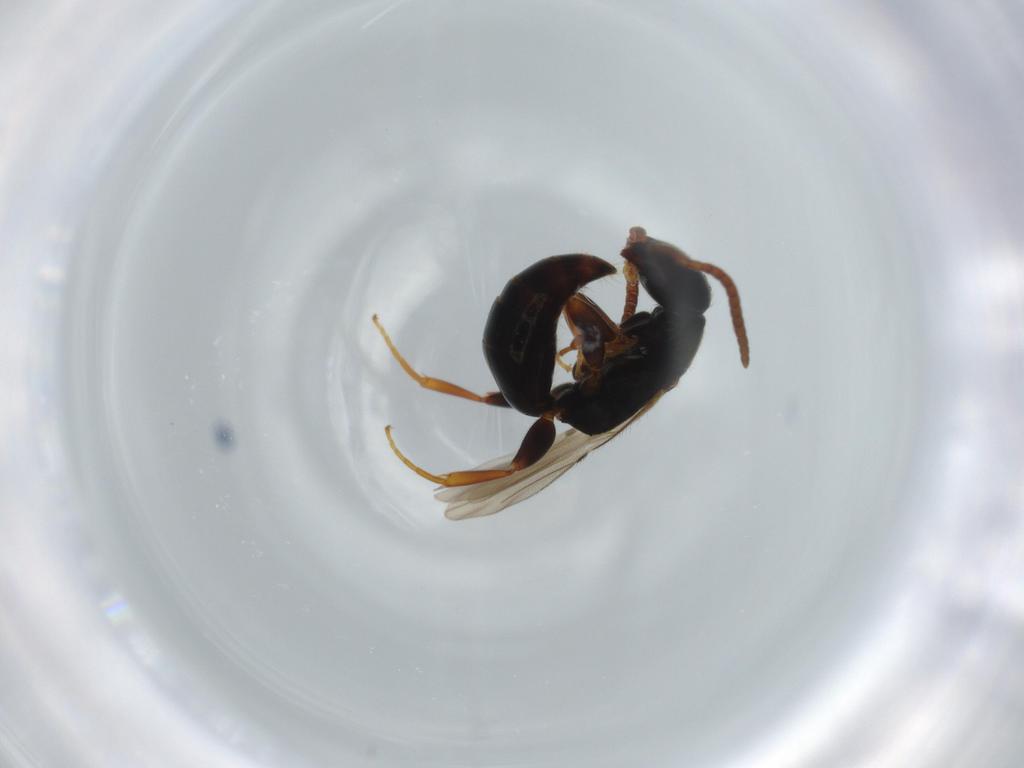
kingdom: Animalia
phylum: Arthropoda
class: Insecta
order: Hymenoptera
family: Bethylidae
